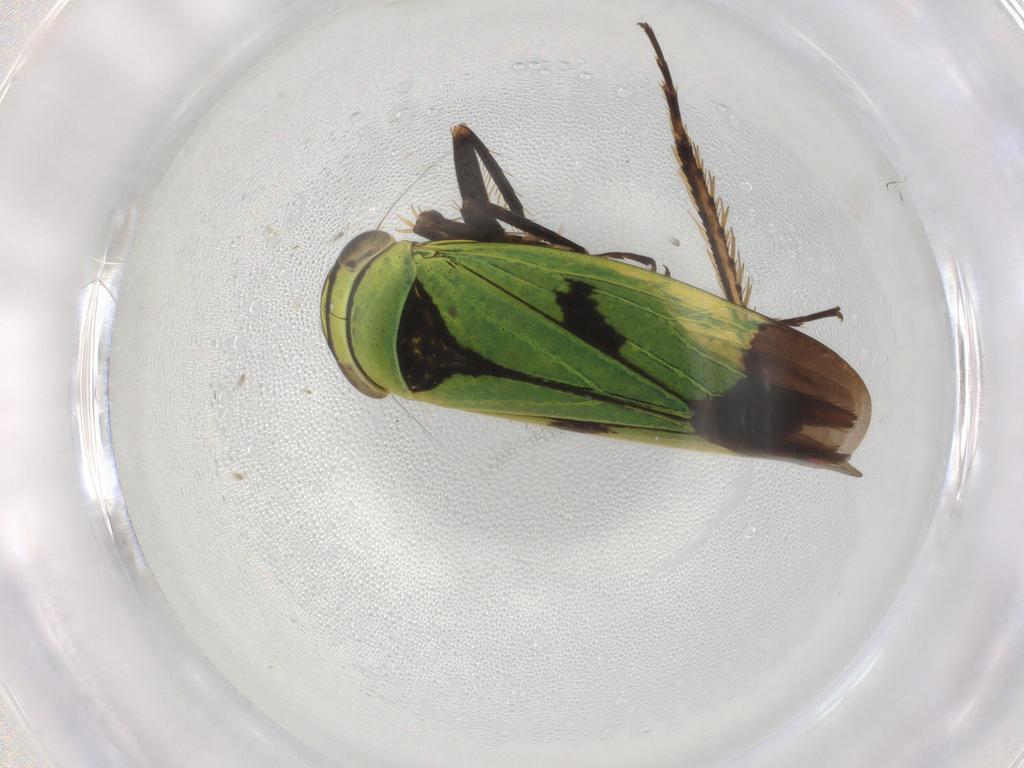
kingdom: Animalia
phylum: Arthropoda
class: Insecta
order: Hemiptera
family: Cicadellidae
